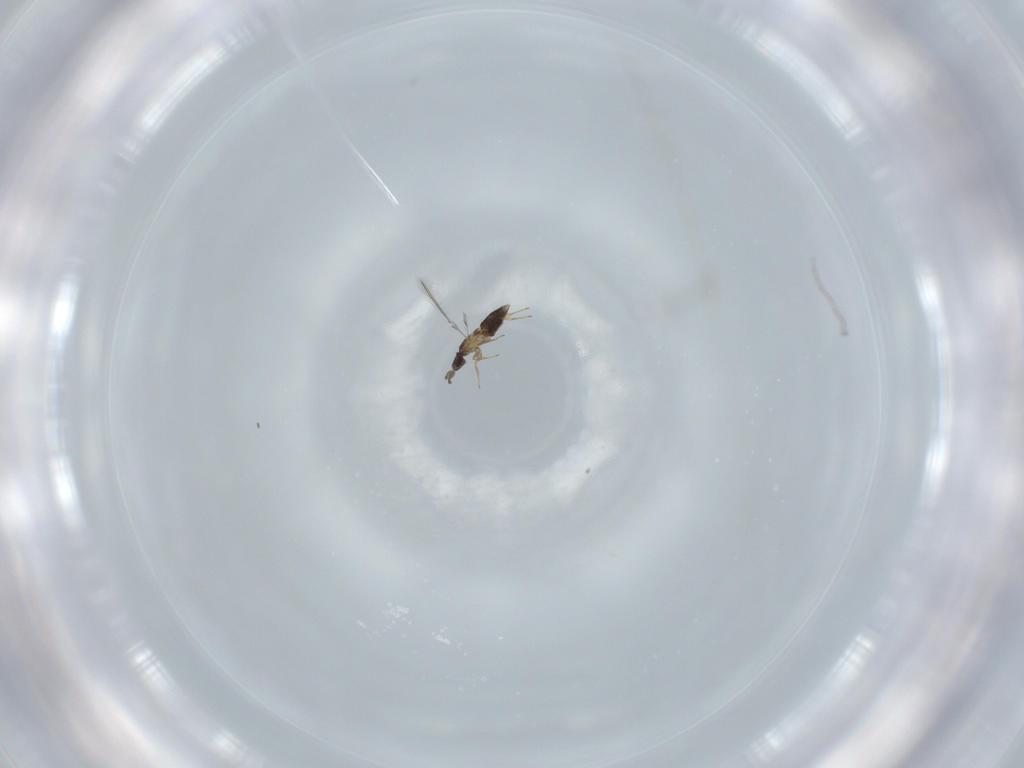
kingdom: Animalia
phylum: Arthropoda
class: Insecta
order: Hymenoptera
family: Mymaridae
